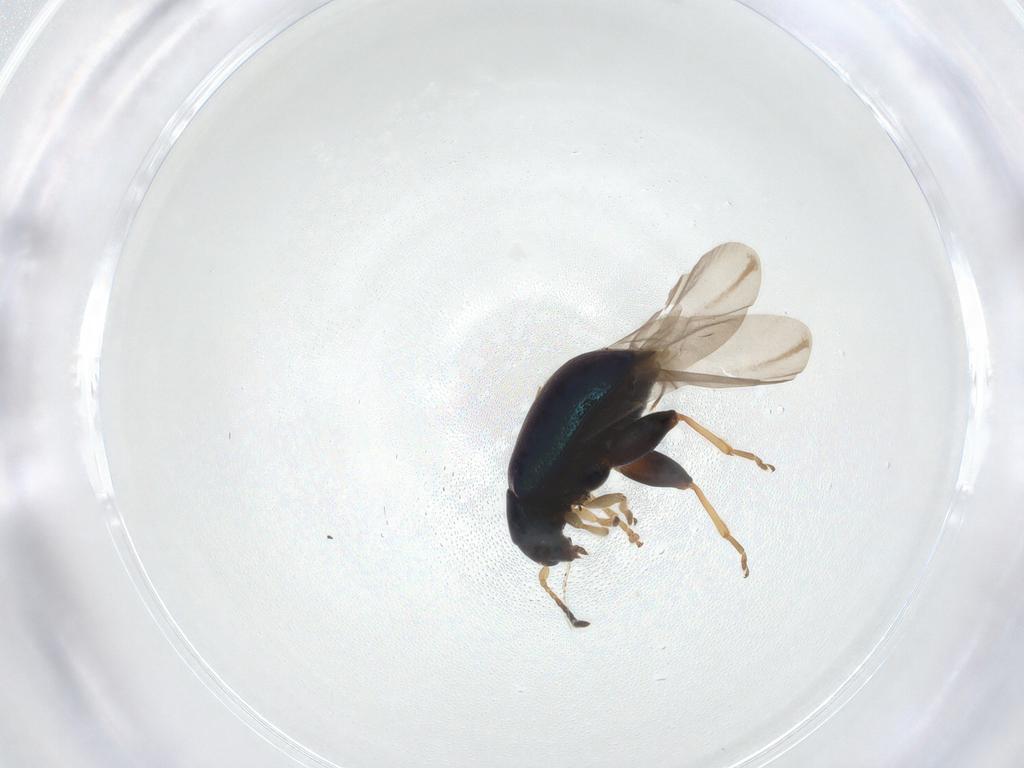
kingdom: Animalia
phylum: Arthropoda
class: Insecta
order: Coleoptera
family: Chrysomelidae
